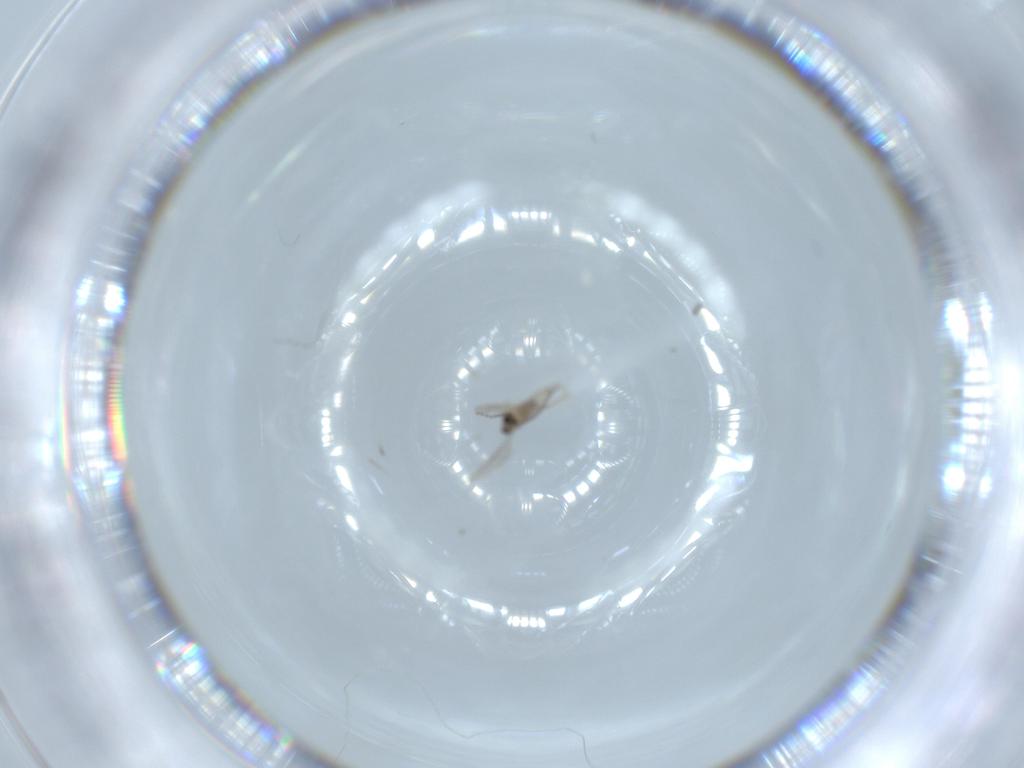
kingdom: Animalia
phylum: Arthropoda
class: Insecta
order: Diptera
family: Cecidomyiidae
